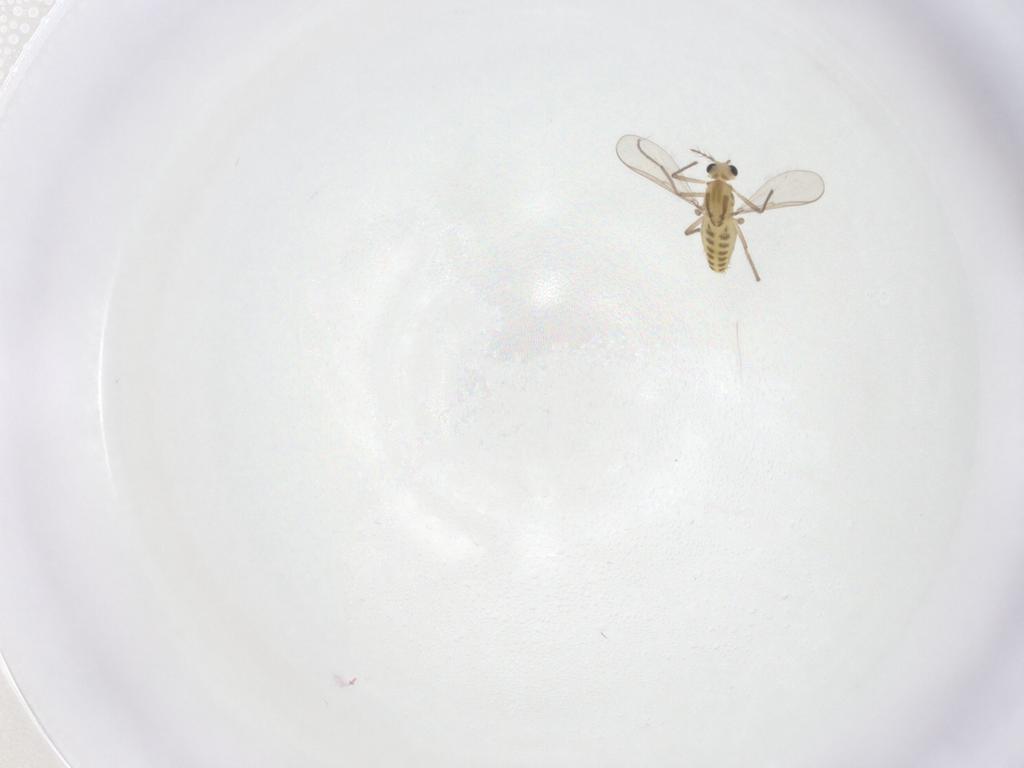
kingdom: Animalia
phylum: Arthropoda
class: Insecta
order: Diptera
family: Chironomidae
